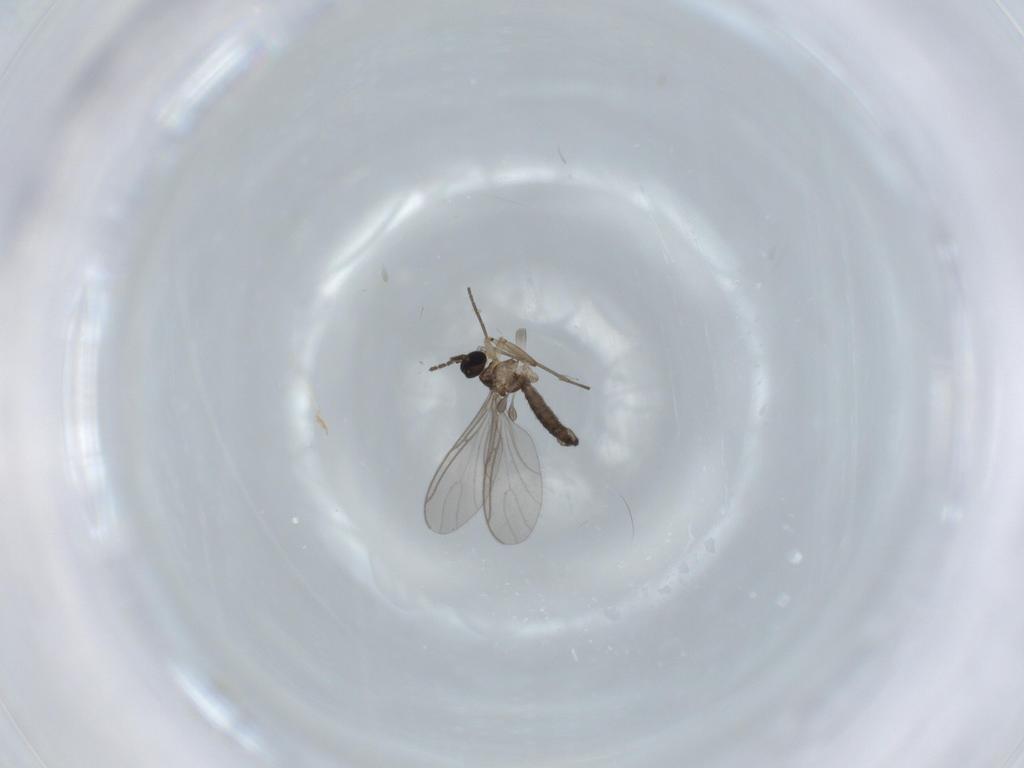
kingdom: Animalia
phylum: Arthropoda
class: Insecta
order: Diptera
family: Sciaridae
